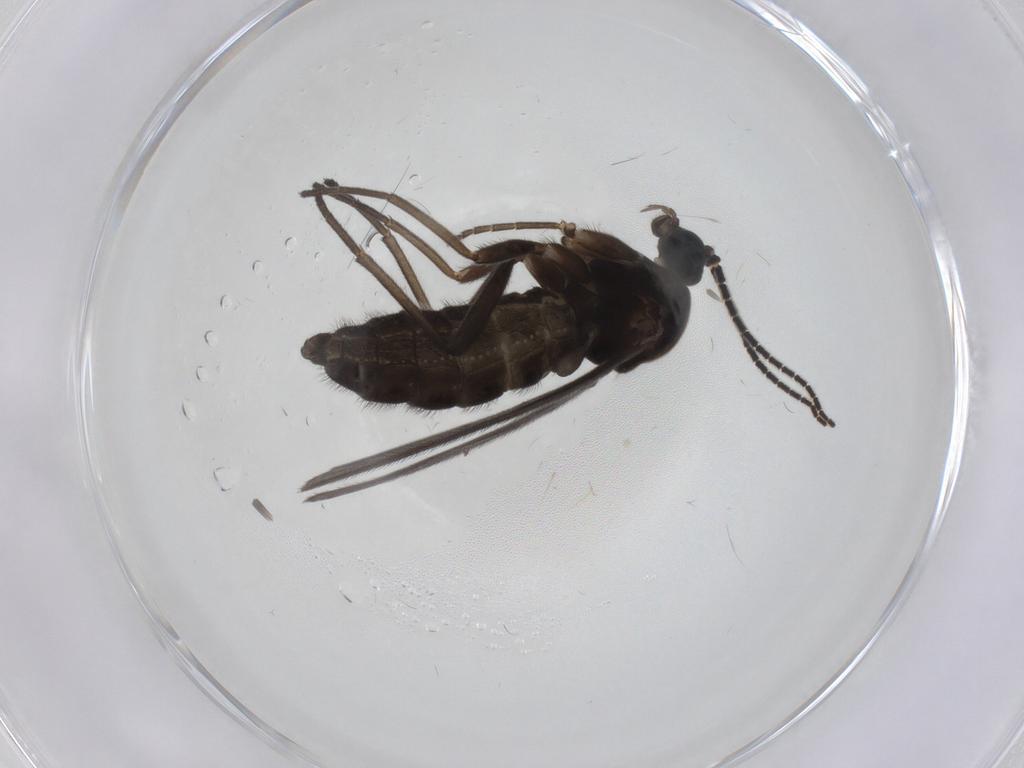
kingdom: Animalia
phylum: Arthropoda
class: Insecta
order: Diptera
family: Sciaridae
